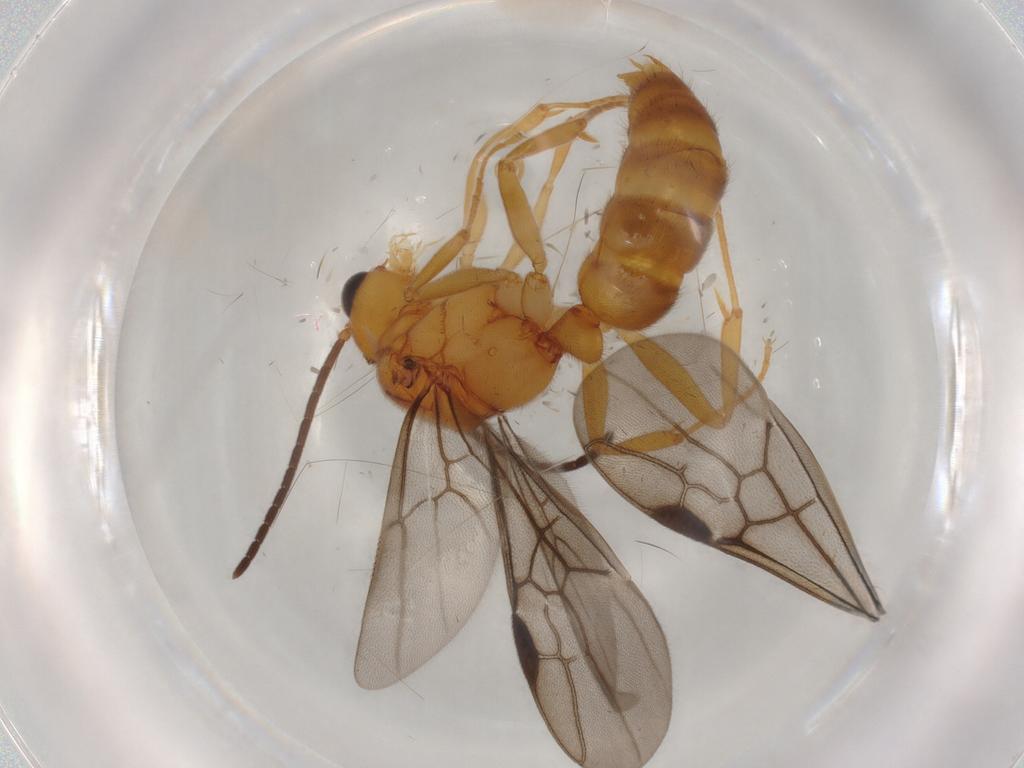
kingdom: Animalia
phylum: Arthropoda
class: Insecta
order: Hymenoptera
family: Formicidae
